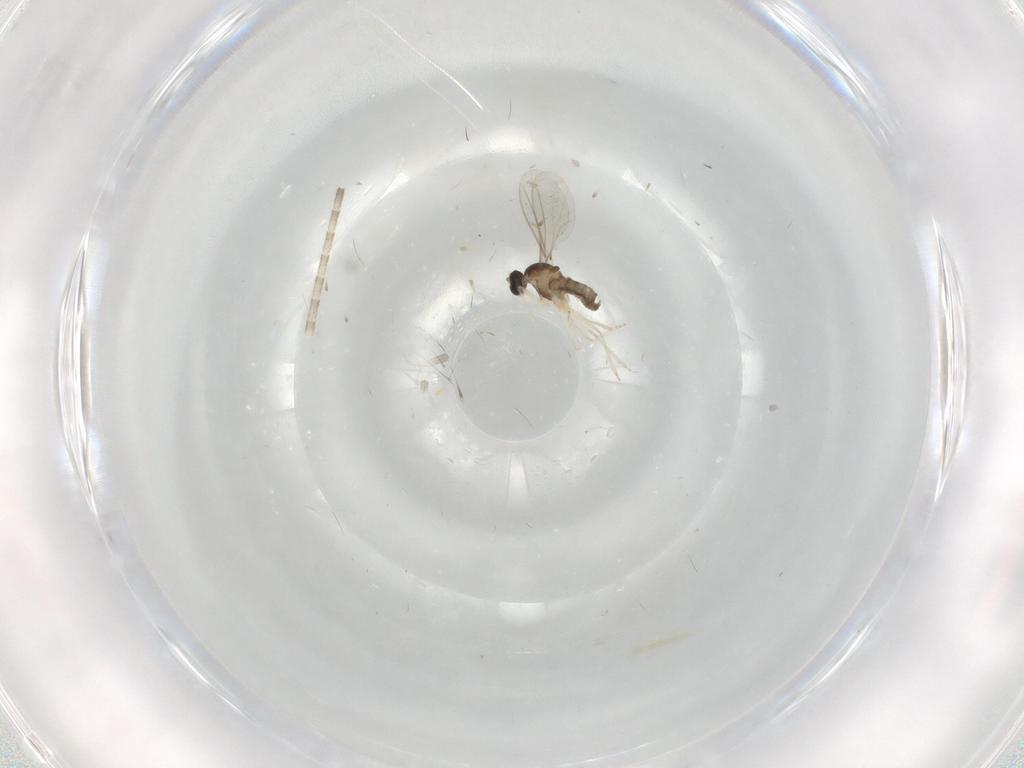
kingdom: Animalia
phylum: Arthropoda
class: Insecta
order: Diptera
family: Cecidomyiidae
